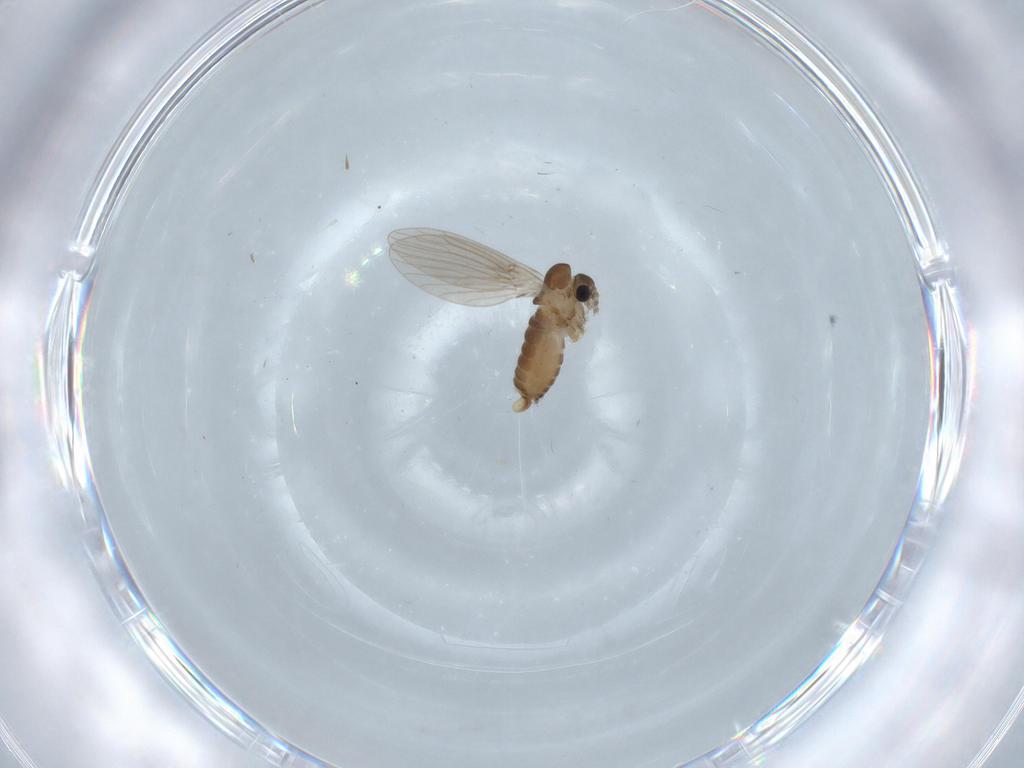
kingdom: Animalia
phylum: Arthropoda
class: Insecta
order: Diptera
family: Psychodidae
